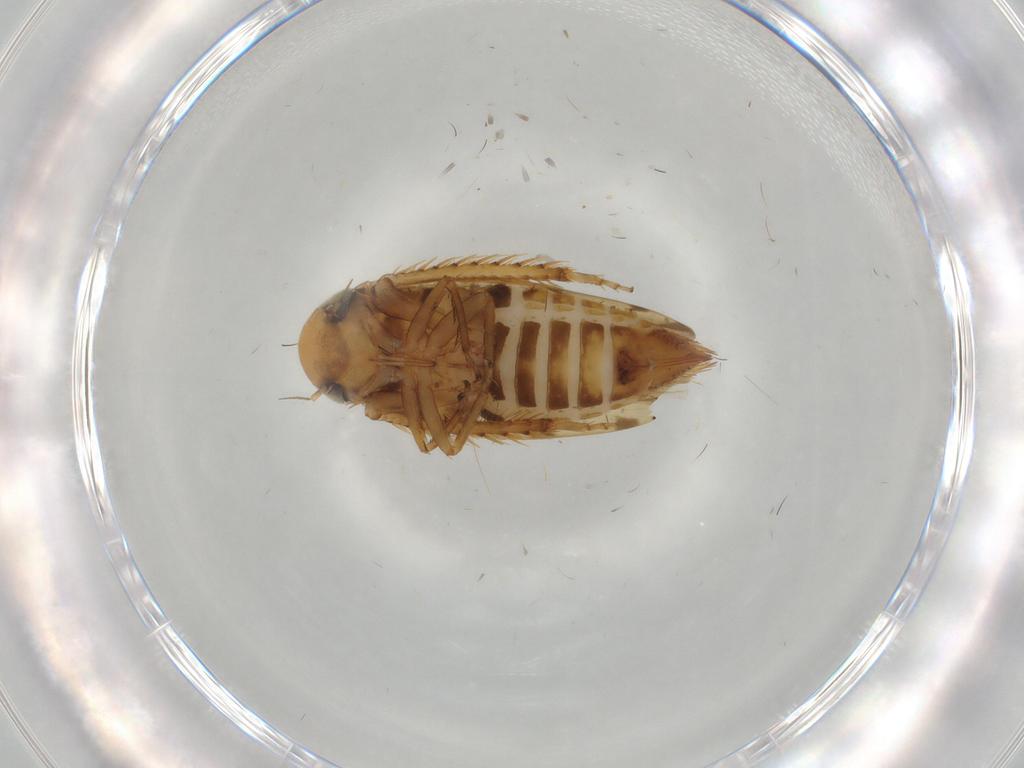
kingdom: Animalia
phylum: Arthropoda
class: Insecta
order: Hemiptera
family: Cicadellidae
